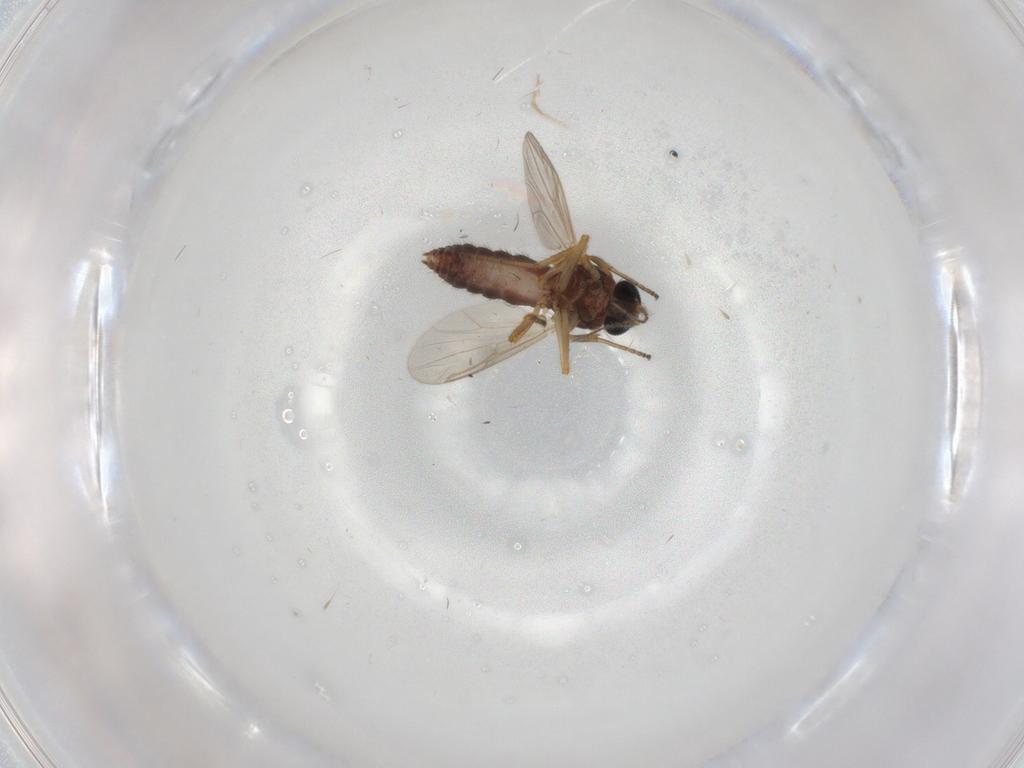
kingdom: Animalia
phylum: Arthropoda
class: Insecta
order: Diptera
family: Ceratopogonidae
